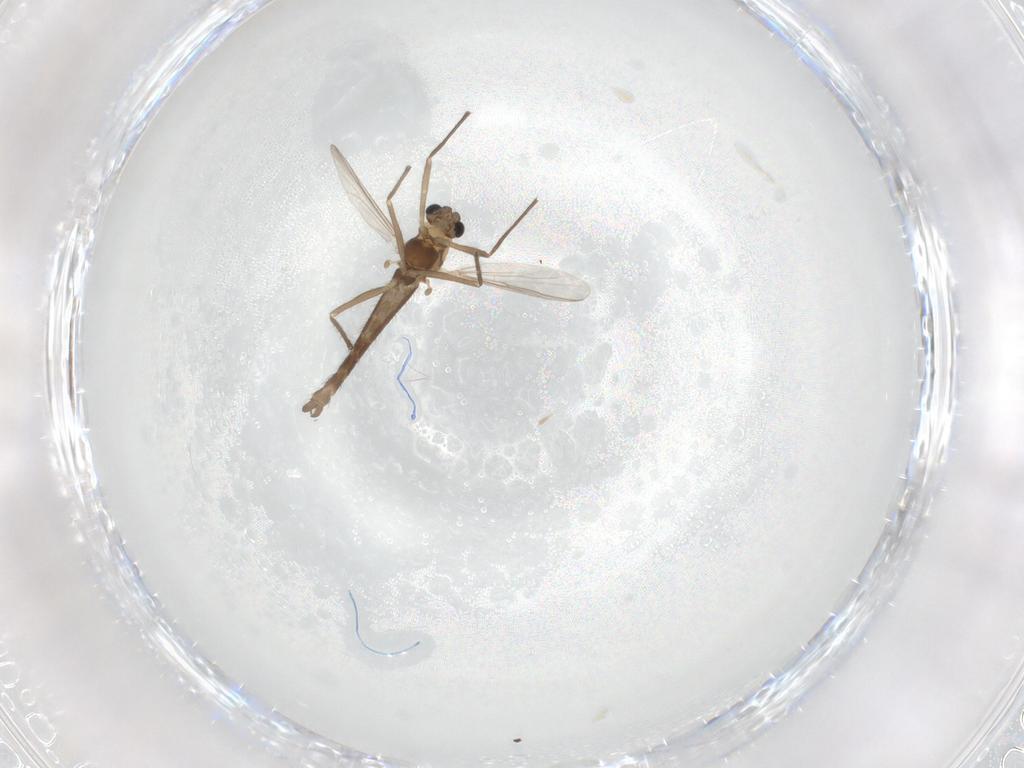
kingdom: Animalia
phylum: Arthropoda
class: Insecta
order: Diptera
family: Chironomidae
